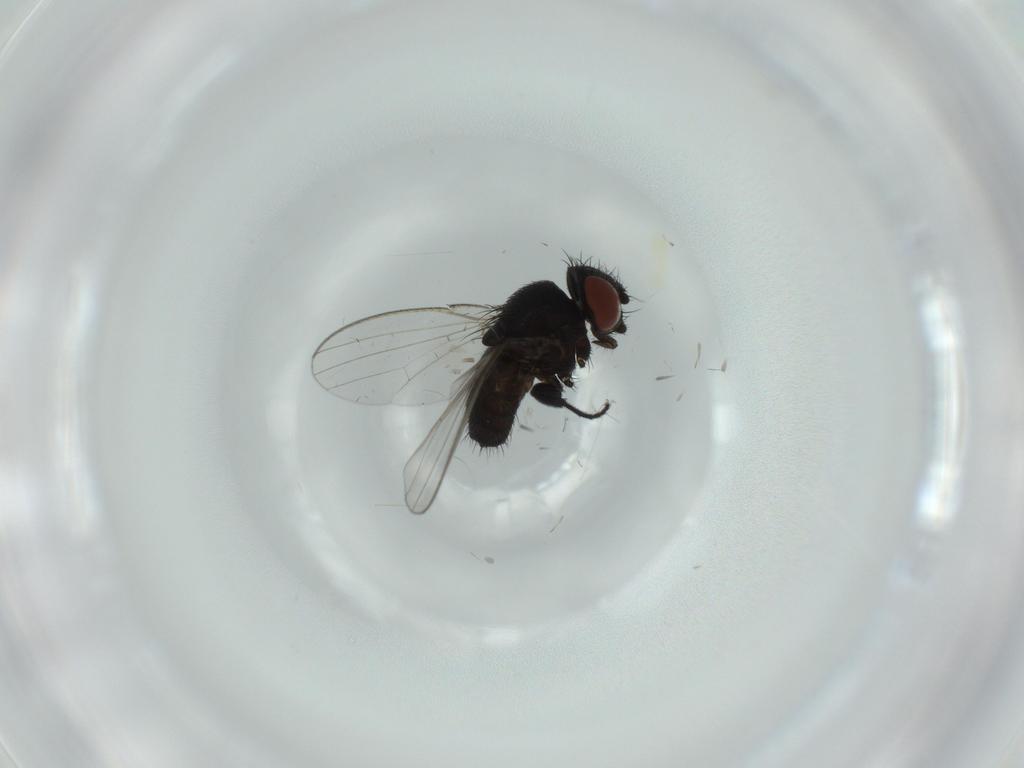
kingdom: Animalia
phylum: Arthropoda
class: Insecta
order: Diptera
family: Milichiidae
